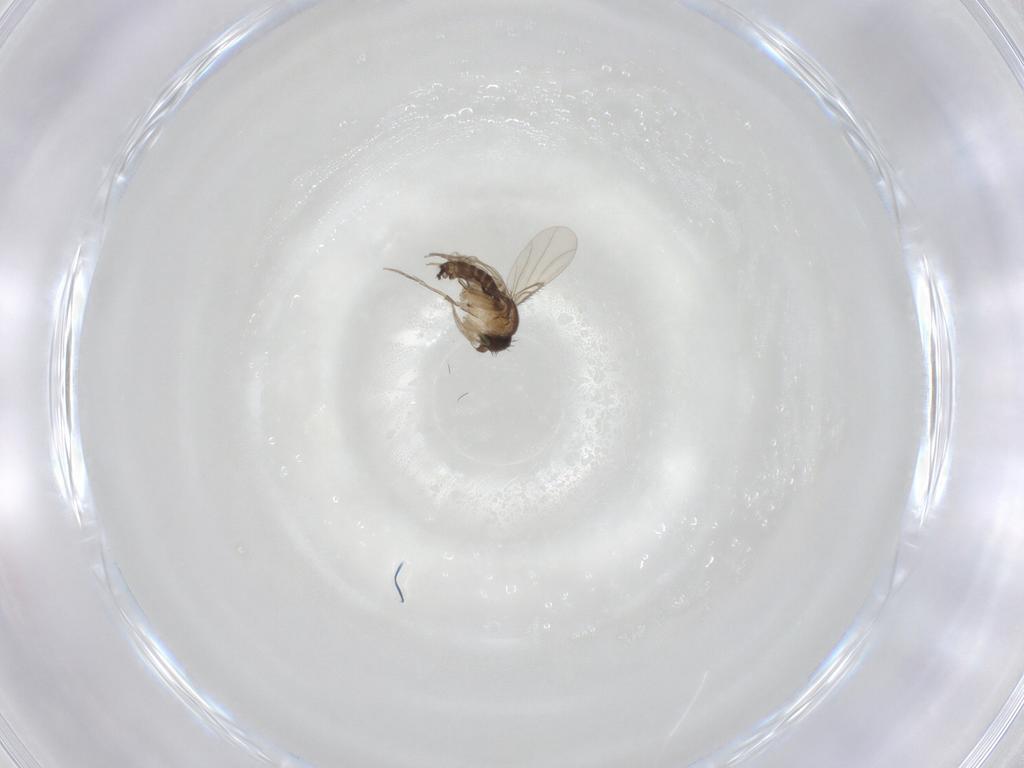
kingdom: Animalia
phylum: Arthropoda
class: Insecta
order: Diptera
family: Phoridae
